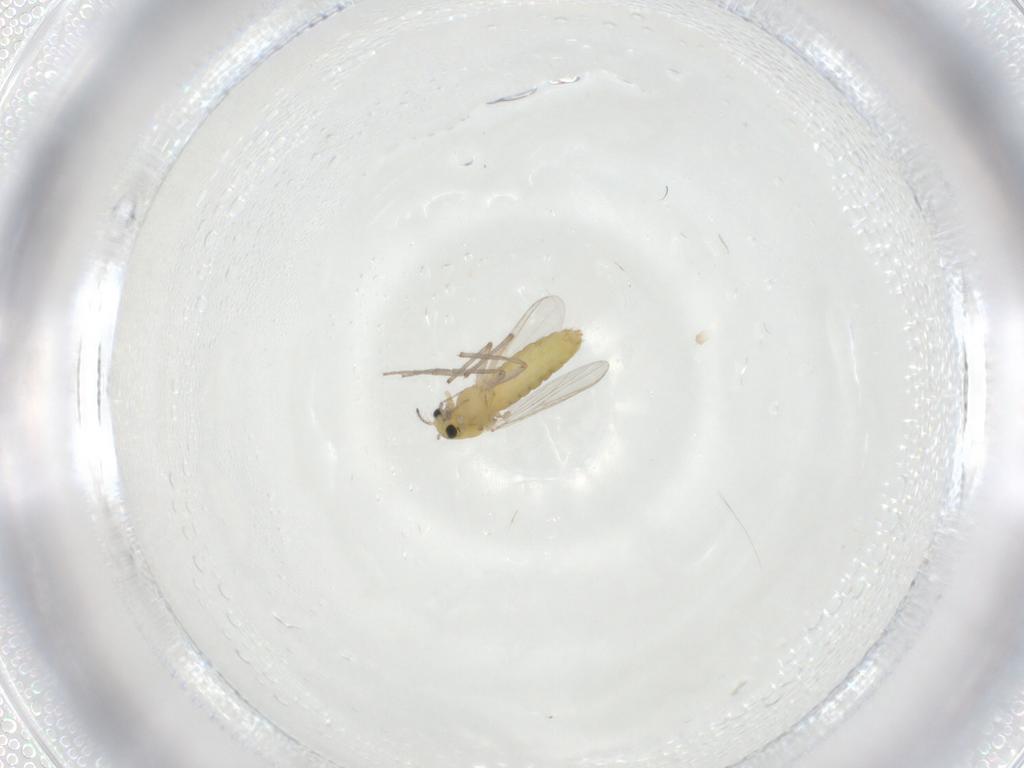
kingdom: Animalia
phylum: Arthropoda
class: Insecta
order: Diptera
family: Chironomidae
